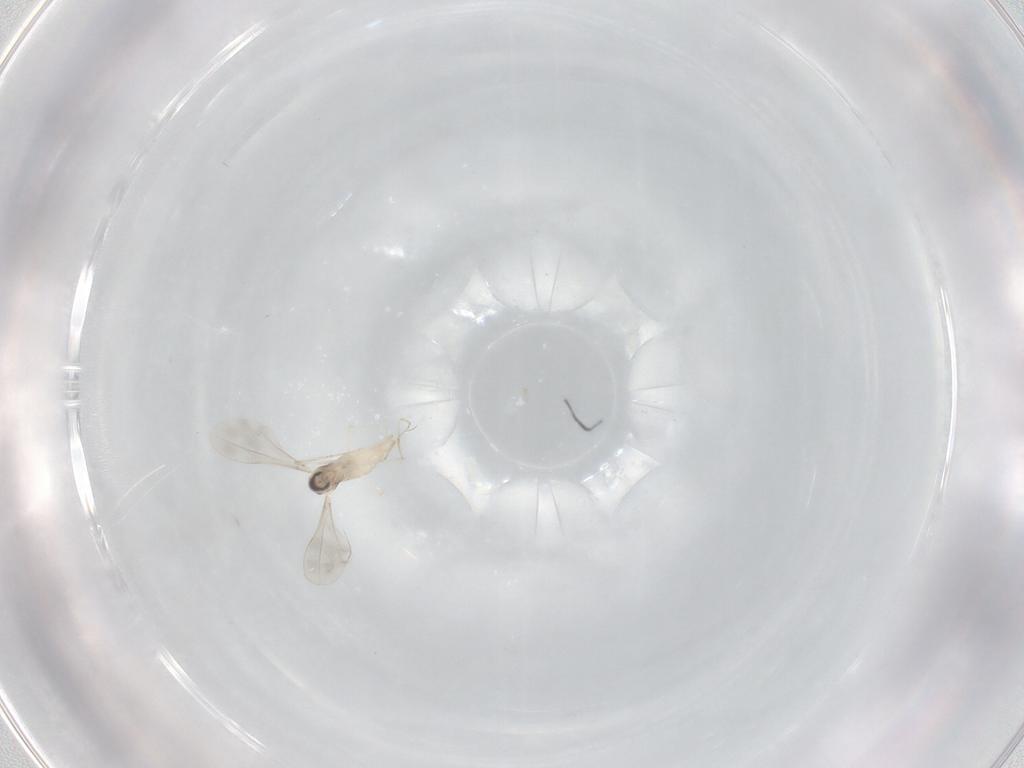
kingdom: Animalia
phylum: Arthropoda
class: Insecta
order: Diptera
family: Cecidomyiidae
